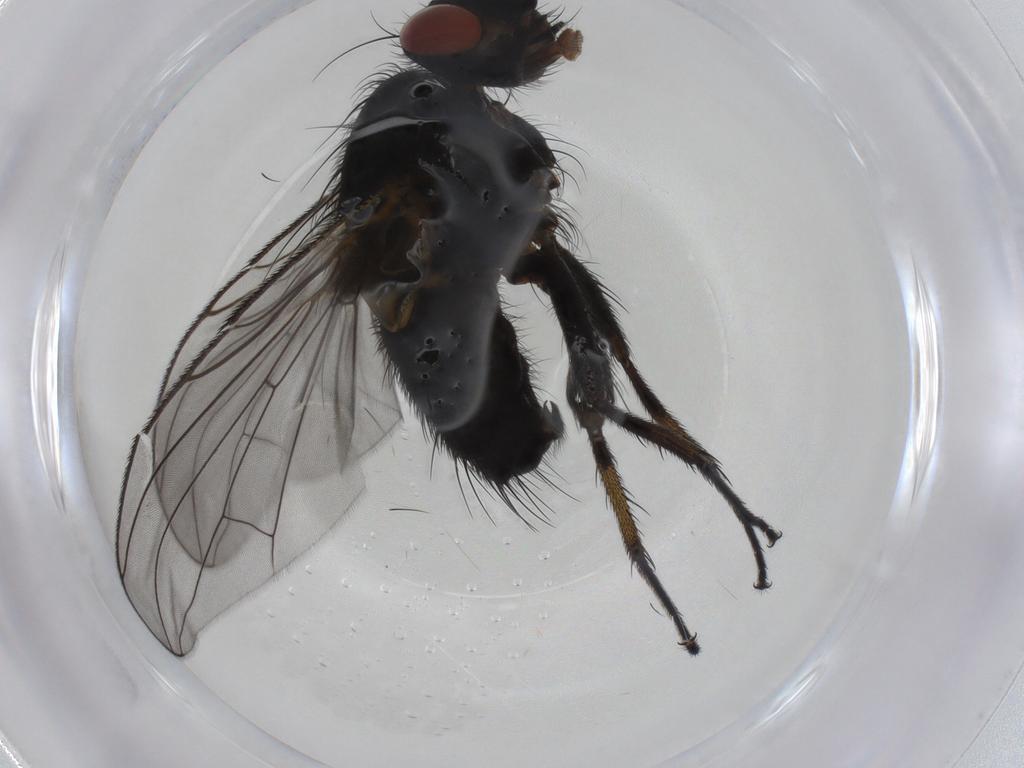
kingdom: Animalia
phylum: Arthropoda
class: Insecta
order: Diptera
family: Tachinidae
